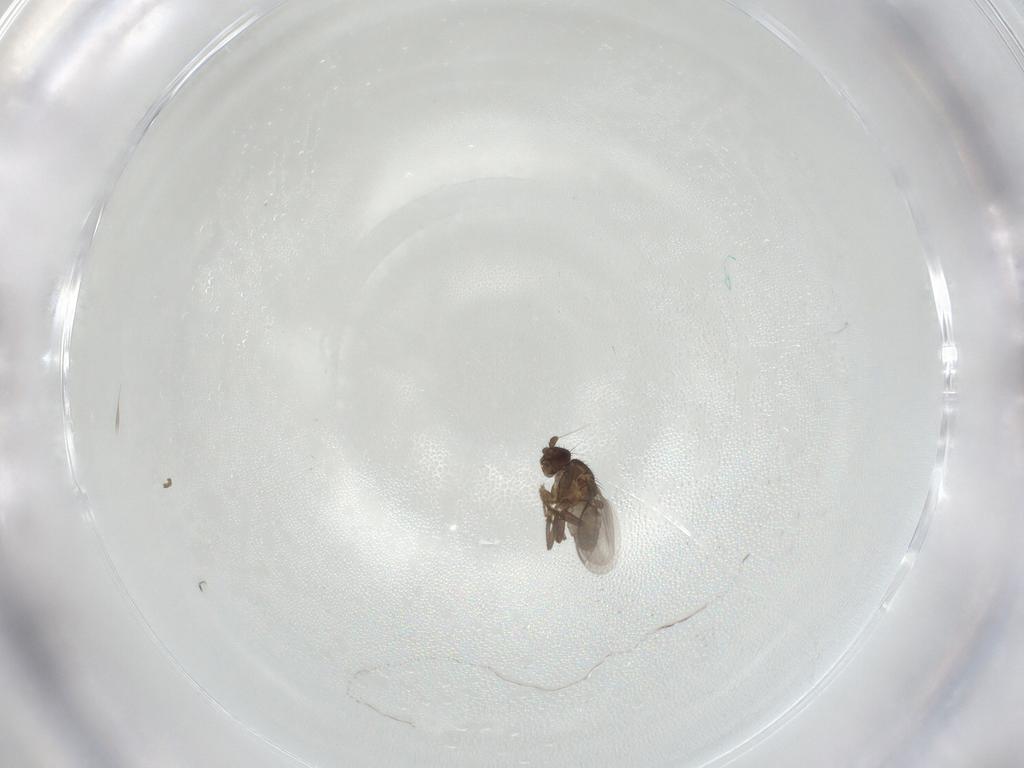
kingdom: Animalia
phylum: Arthropoda
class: Insecta
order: Diptera
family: Sphaeroceridae
